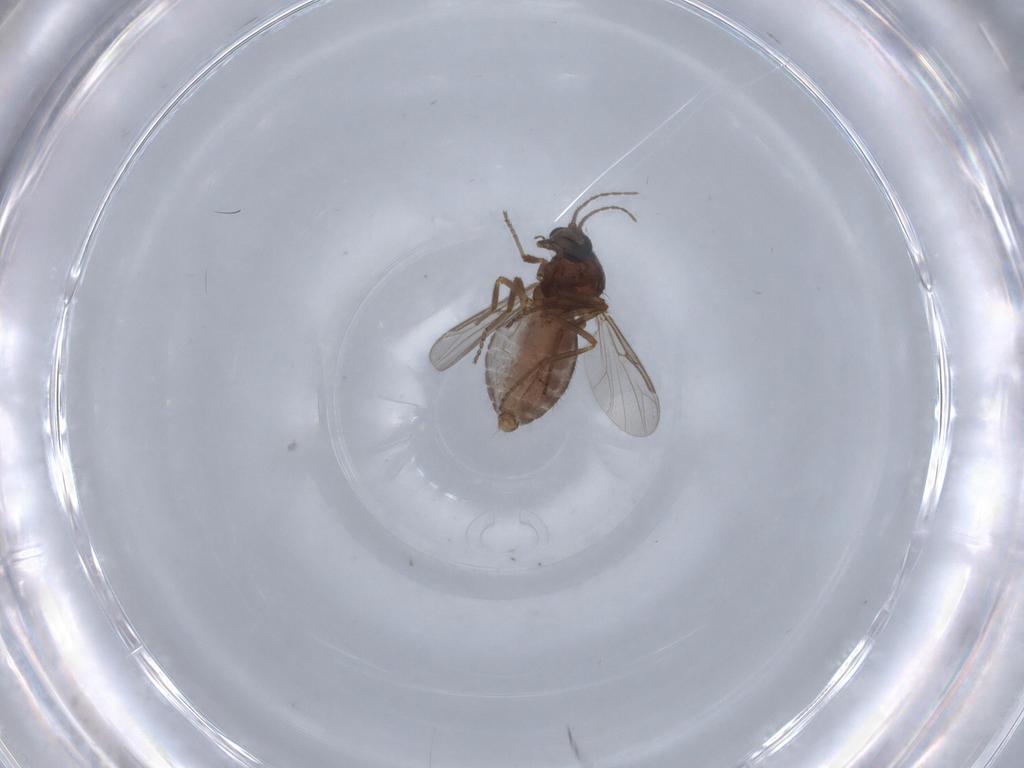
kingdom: Animalia
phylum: Arthropoda
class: Insecta
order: Diptera
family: Ceratopogonidae
